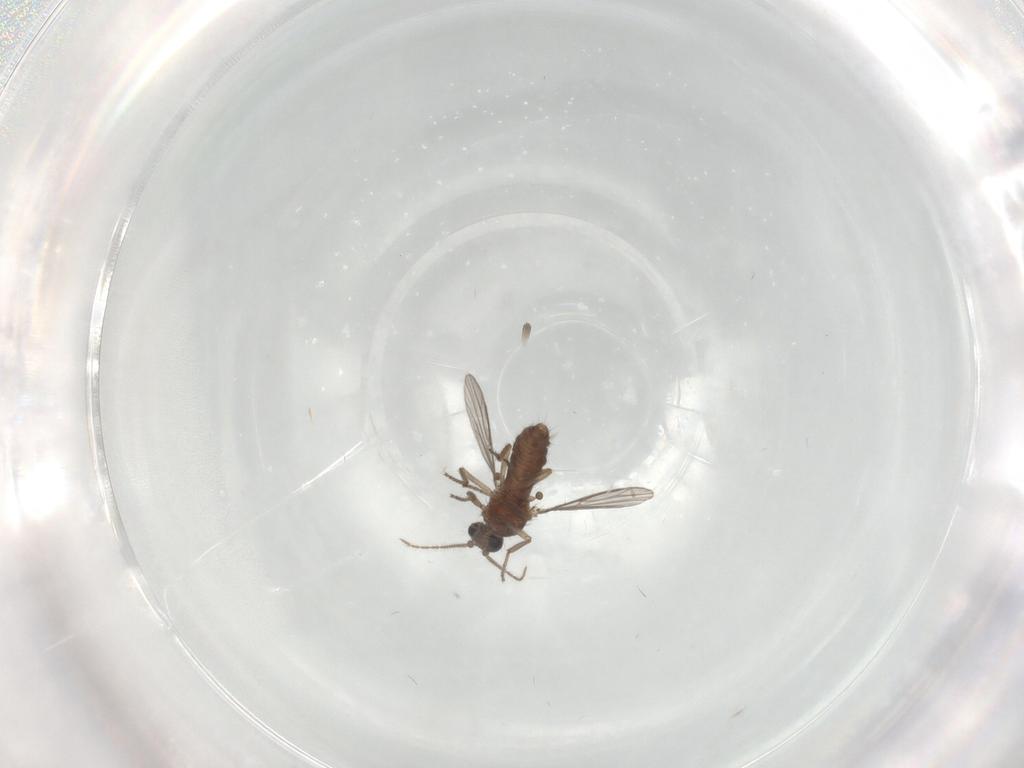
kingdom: Animalia
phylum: Arthropoda
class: Insecta
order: Diptera
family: Ceratopogonidae
